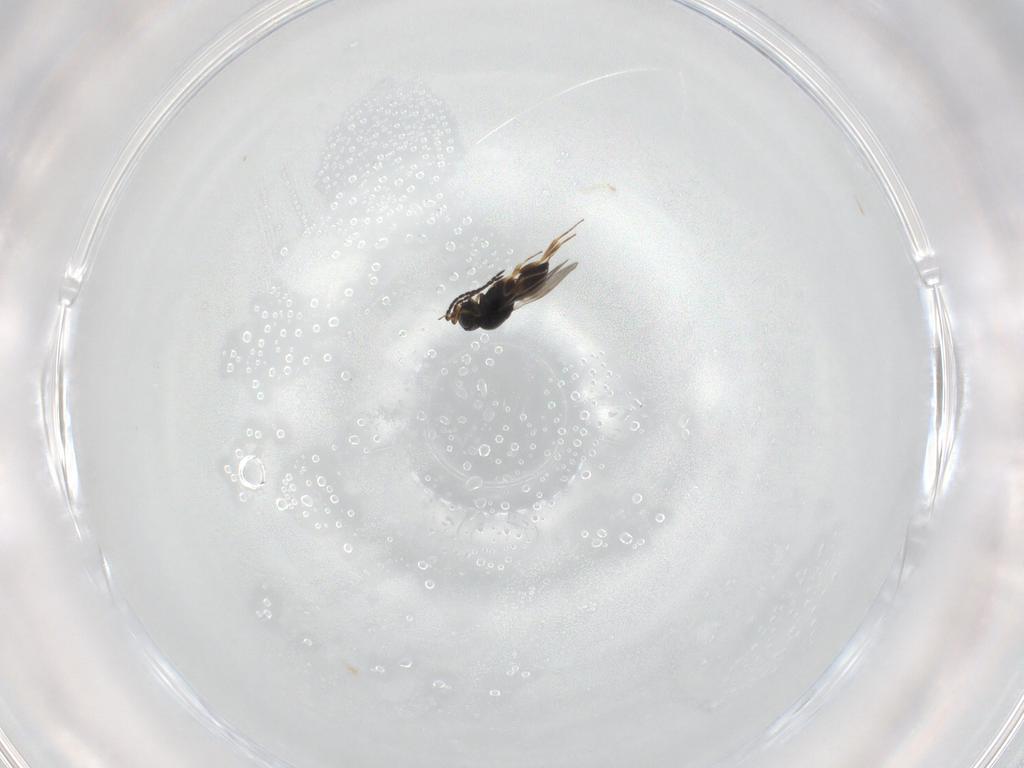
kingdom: Animalia
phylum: Arthropoda
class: Insecta
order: Hymenoptera
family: Scelionidae
